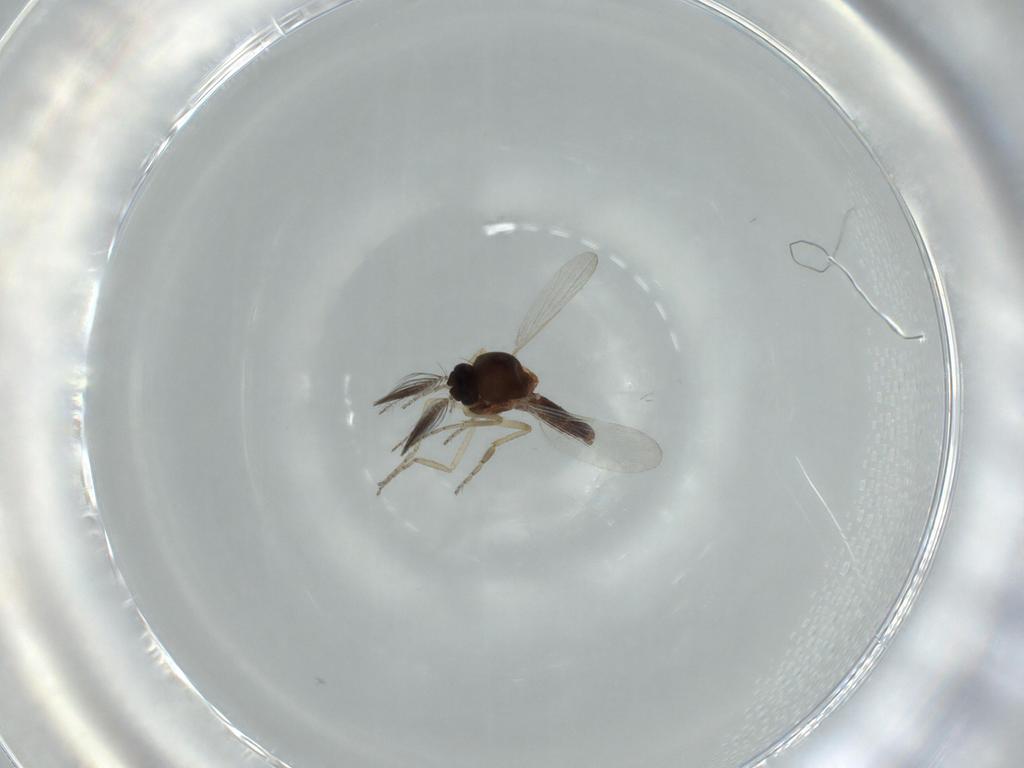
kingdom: Animalia
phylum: Arthropoda
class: Insecta
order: Diptera
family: Ceratopogonidae
